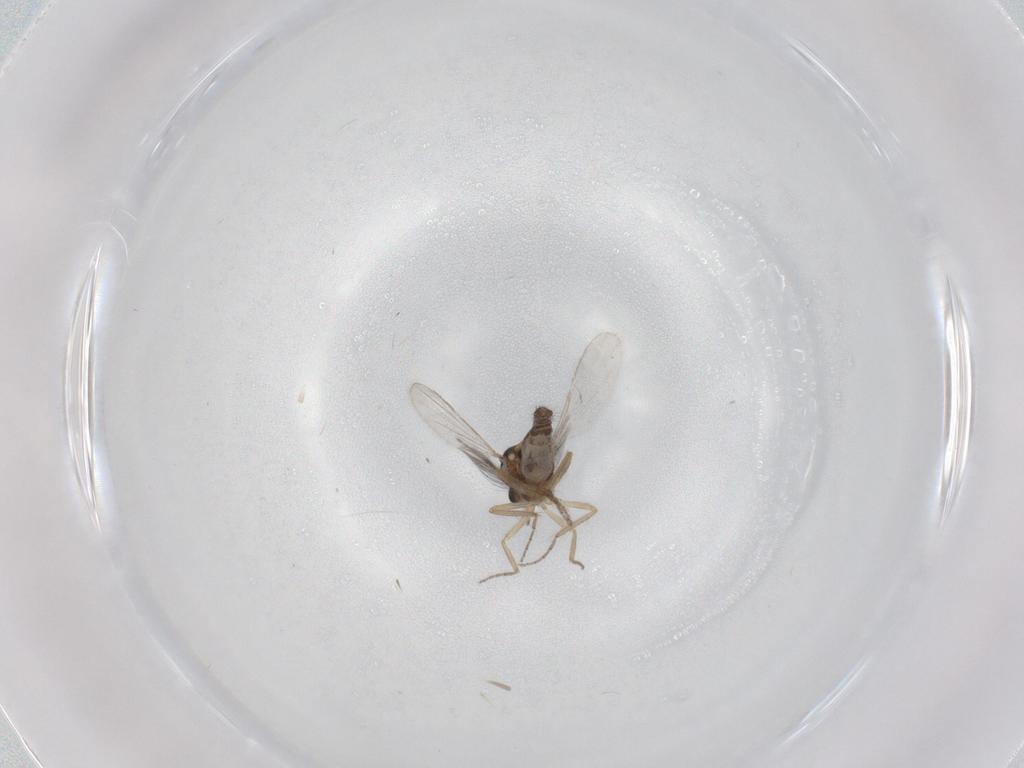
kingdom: Animalia
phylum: Arthropoda
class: Insecta
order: Diptera
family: Ceratopogonidae
